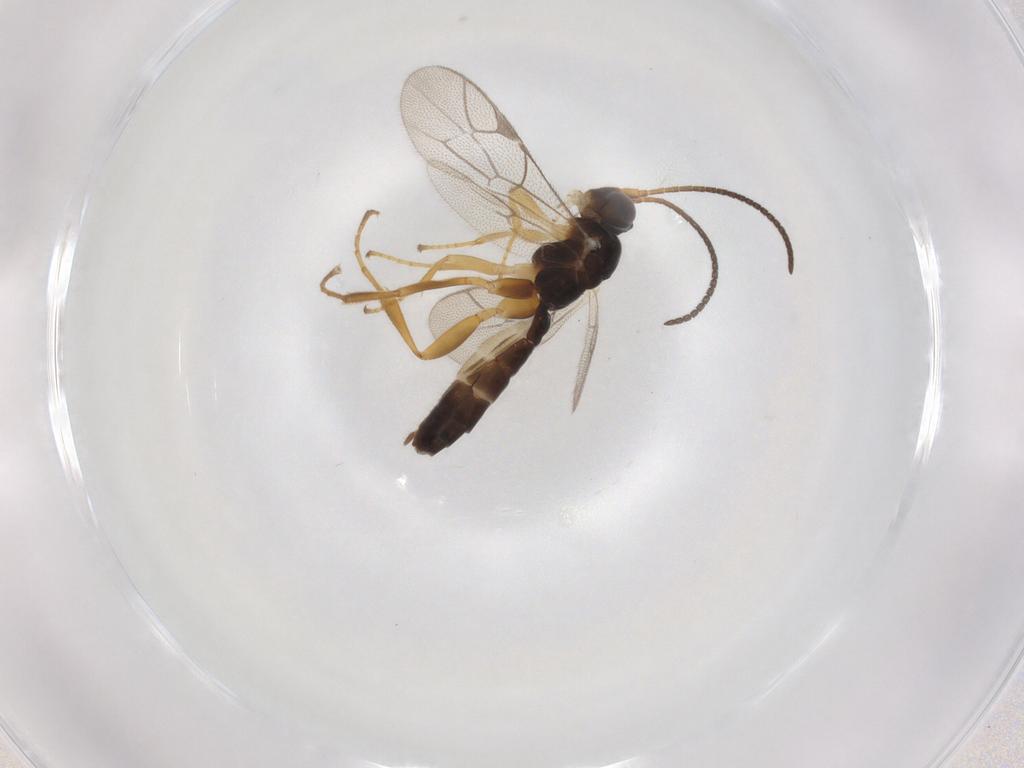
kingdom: Animalia
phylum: Arthropoda
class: Insecta
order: Hymenoptera
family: Ichneumonidae
